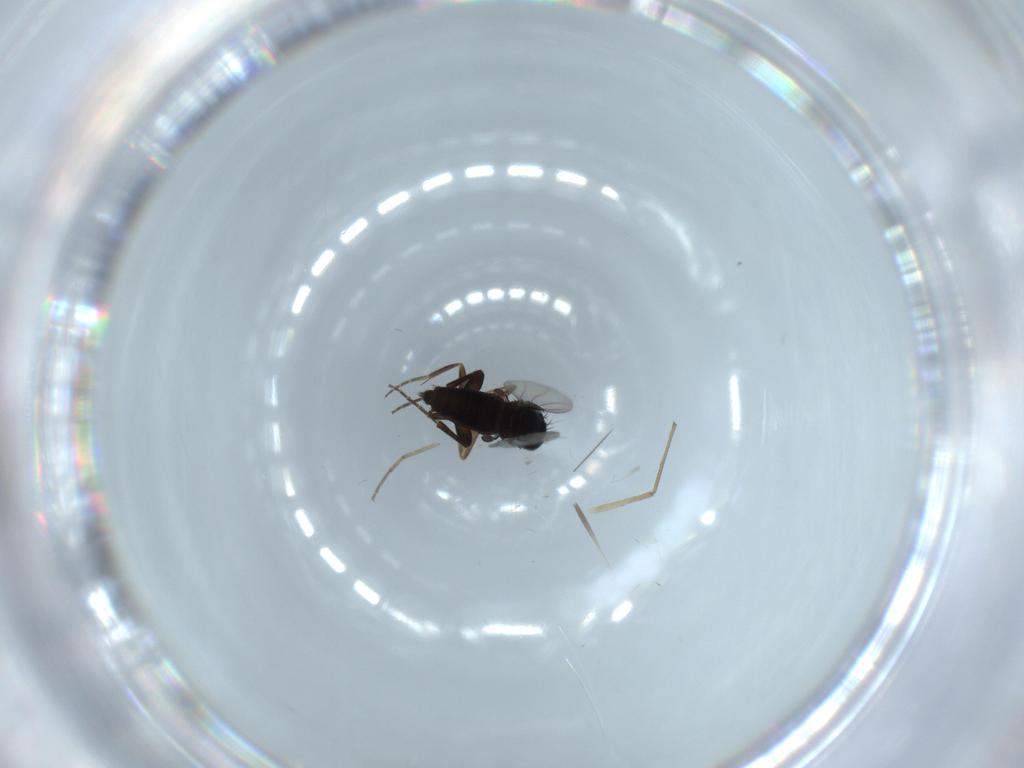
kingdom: Animalia
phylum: Arthropoda
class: Insecta
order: Diptera
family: Phoridae
